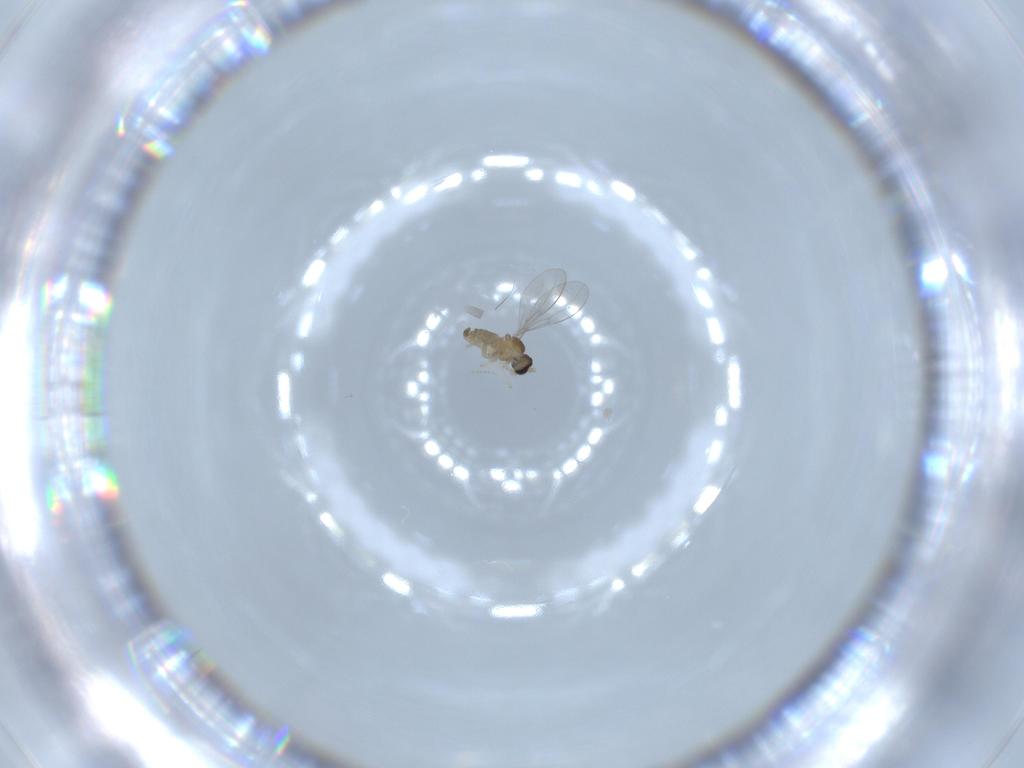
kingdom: Animalia
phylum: Arthropoda
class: Insecta
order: Diptera
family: Cecidomyiidae
